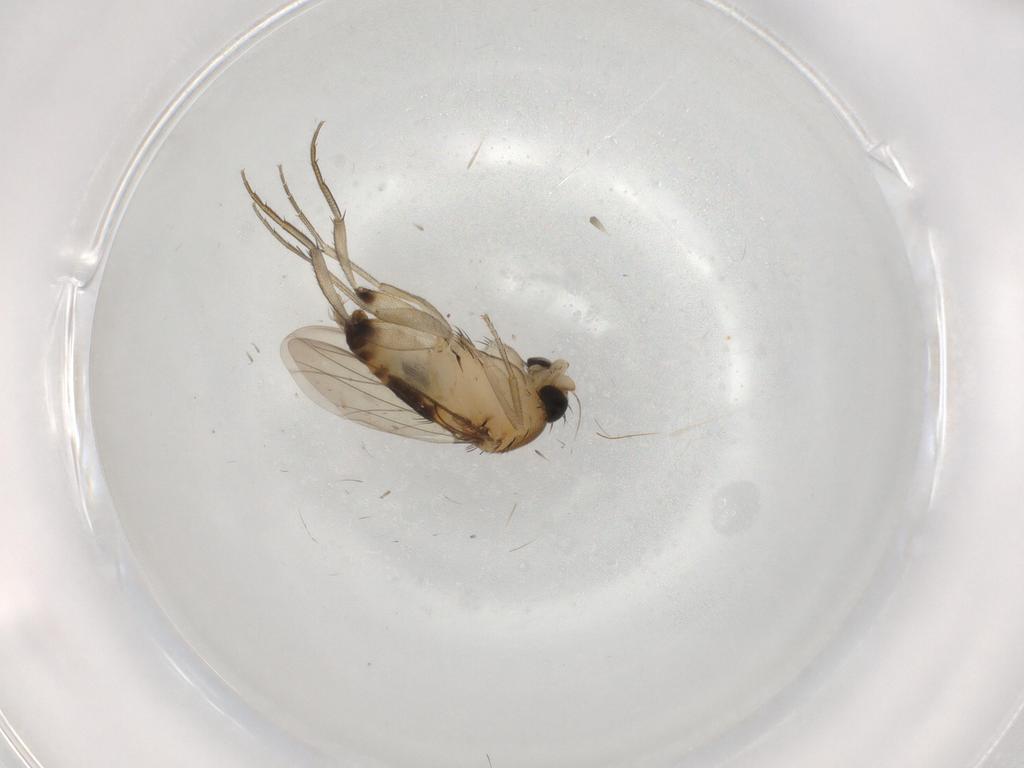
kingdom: Animalia
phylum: Arthropoda
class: Insecta
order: Diptera
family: Phoridae
